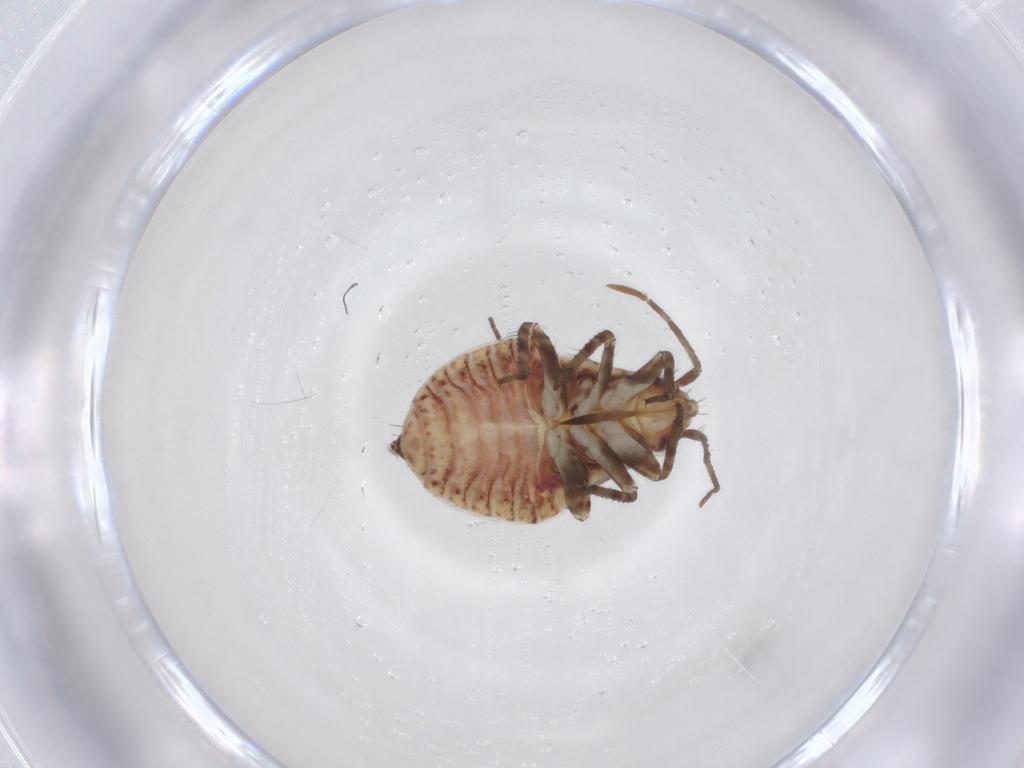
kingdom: Animalia
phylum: Arthropoda
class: Insecta
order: Hemiptera
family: Miridae
